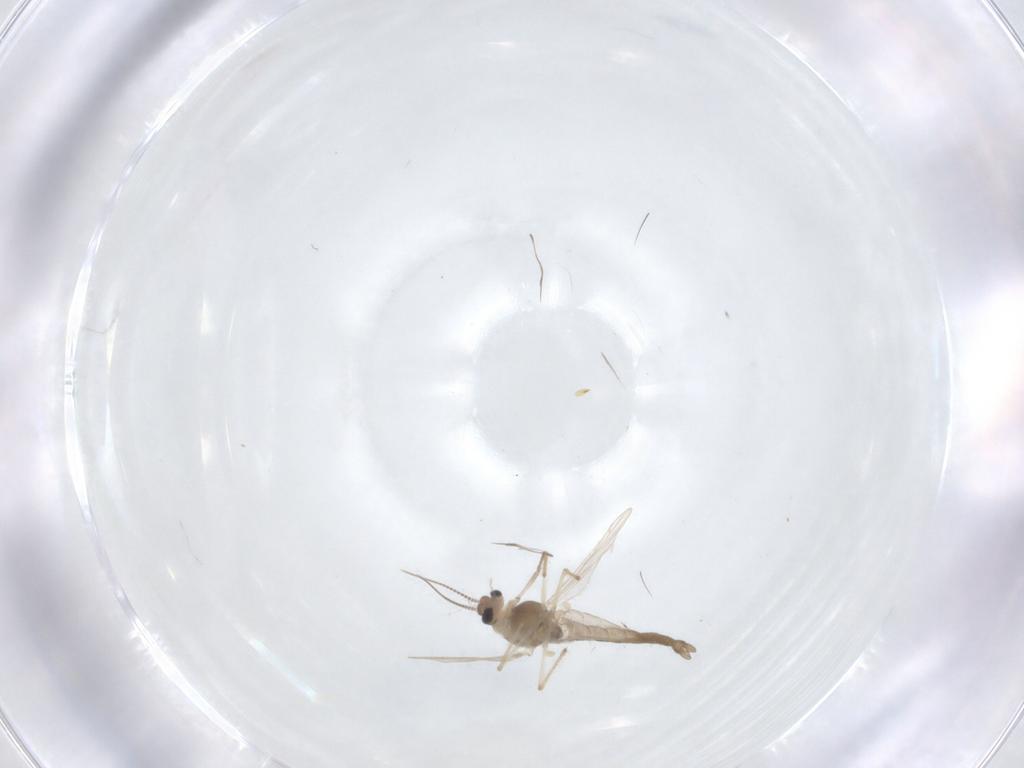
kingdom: Animalia
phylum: Arthropoda
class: Insecta
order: Diptera
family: Cecidomyiidae
